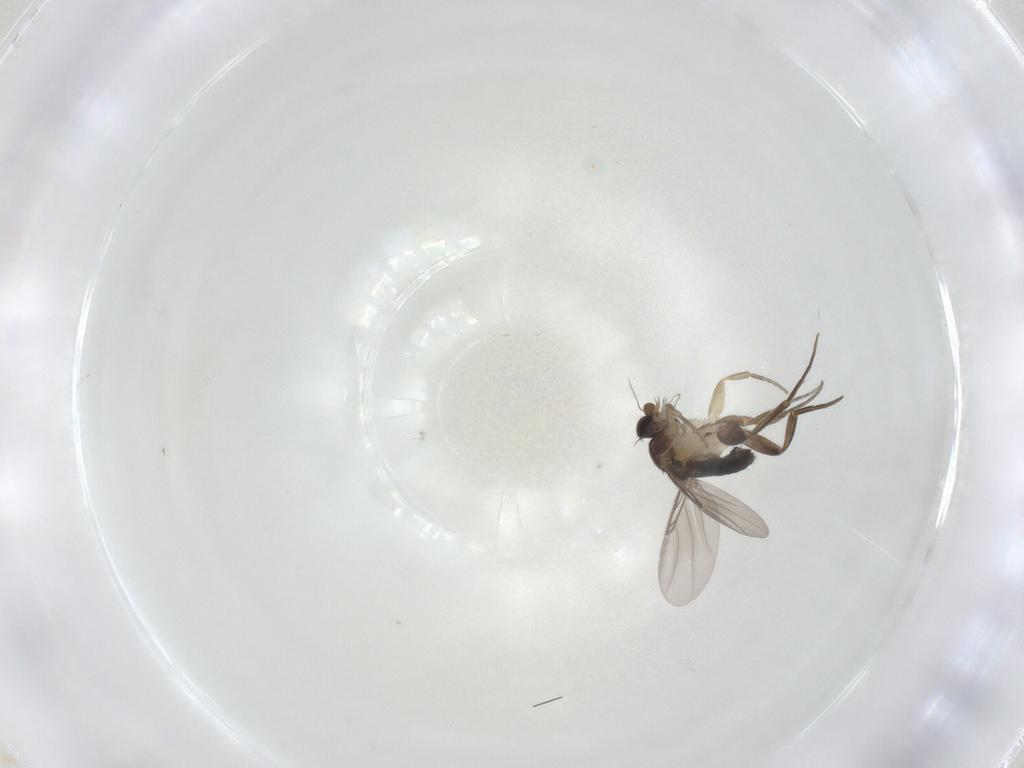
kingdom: Animalia
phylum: Arthropoda
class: Insecta
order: Diptera
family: Phoridae
